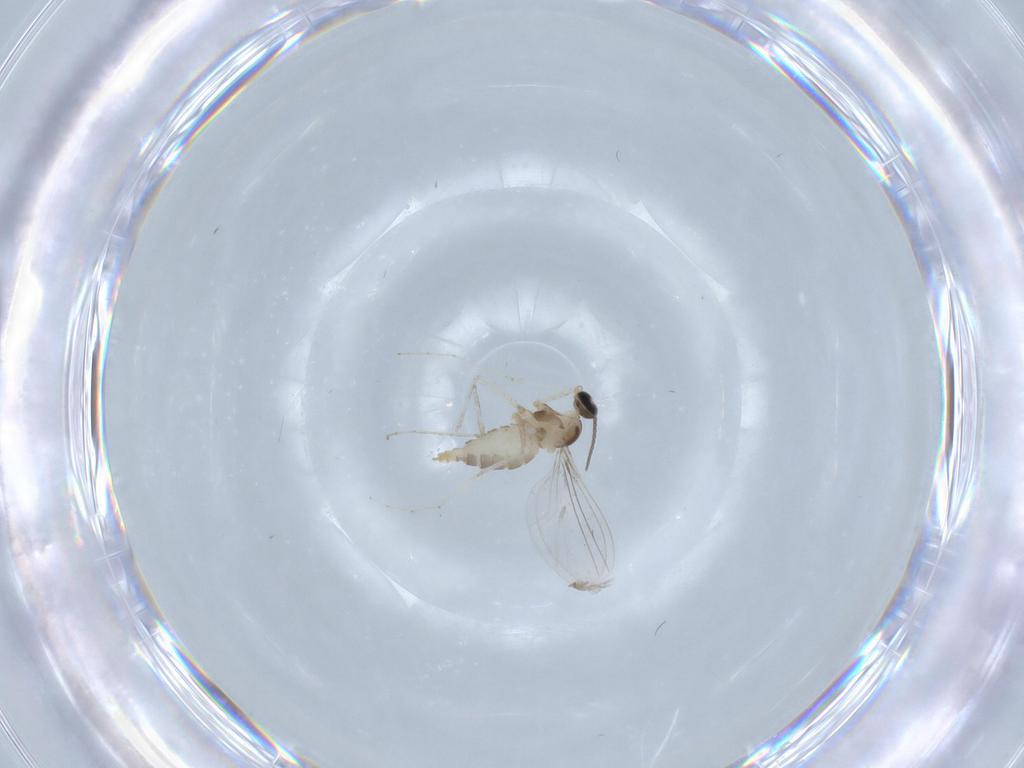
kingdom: Animalia
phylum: Arthropoda
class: Insecta
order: Diptera
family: Cecidomyiidae
